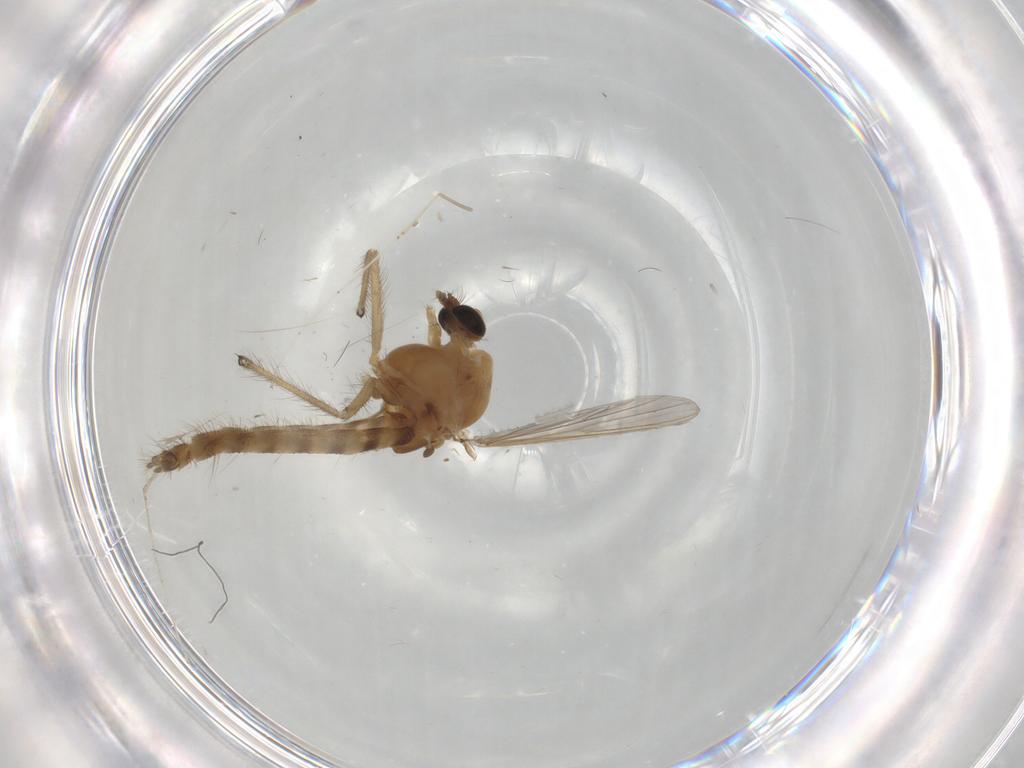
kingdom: Animalia
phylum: Arthropoda
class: Insecta
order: Diptera
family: Chironomidae
